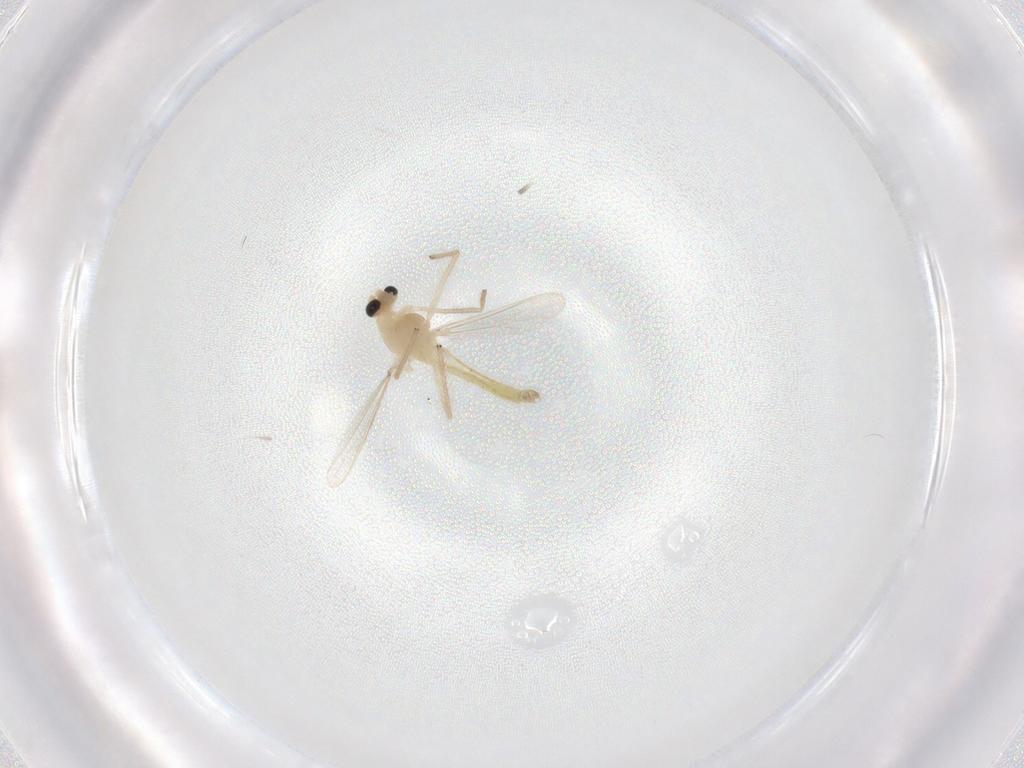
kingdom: Animalia
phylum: Arthropoda
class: Insecta
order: Diptera
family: Chironomidae
